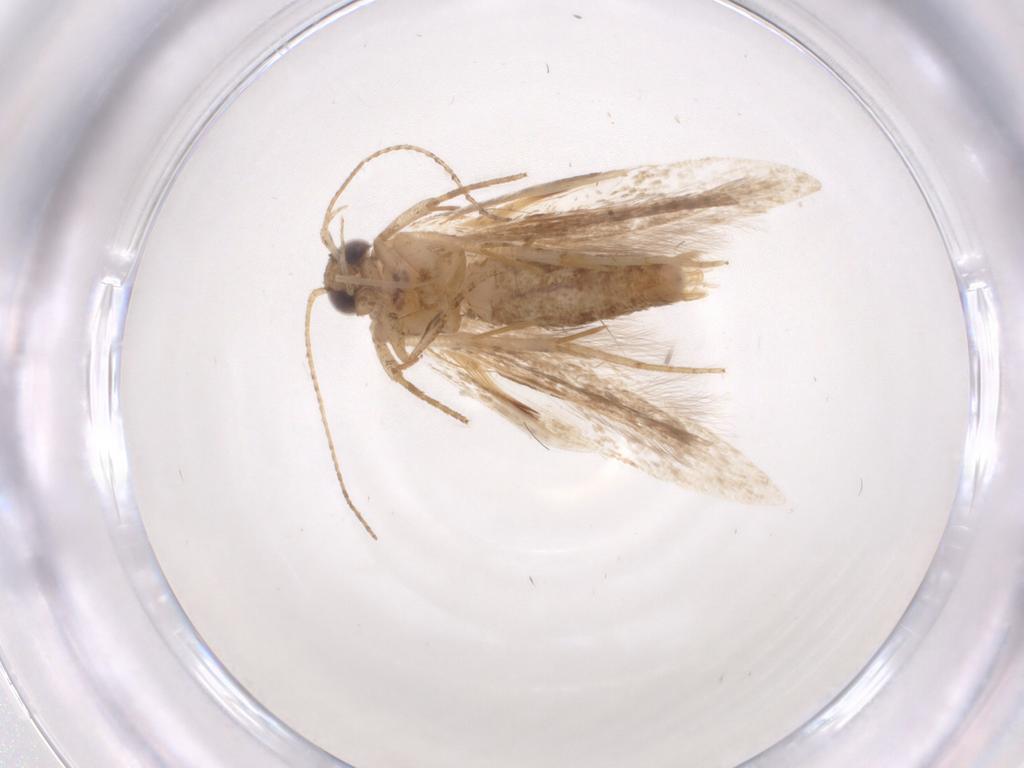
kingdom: Animalia
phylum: Arthropoda
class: Insecta
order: Lepidoptera
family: Gelechiidae
